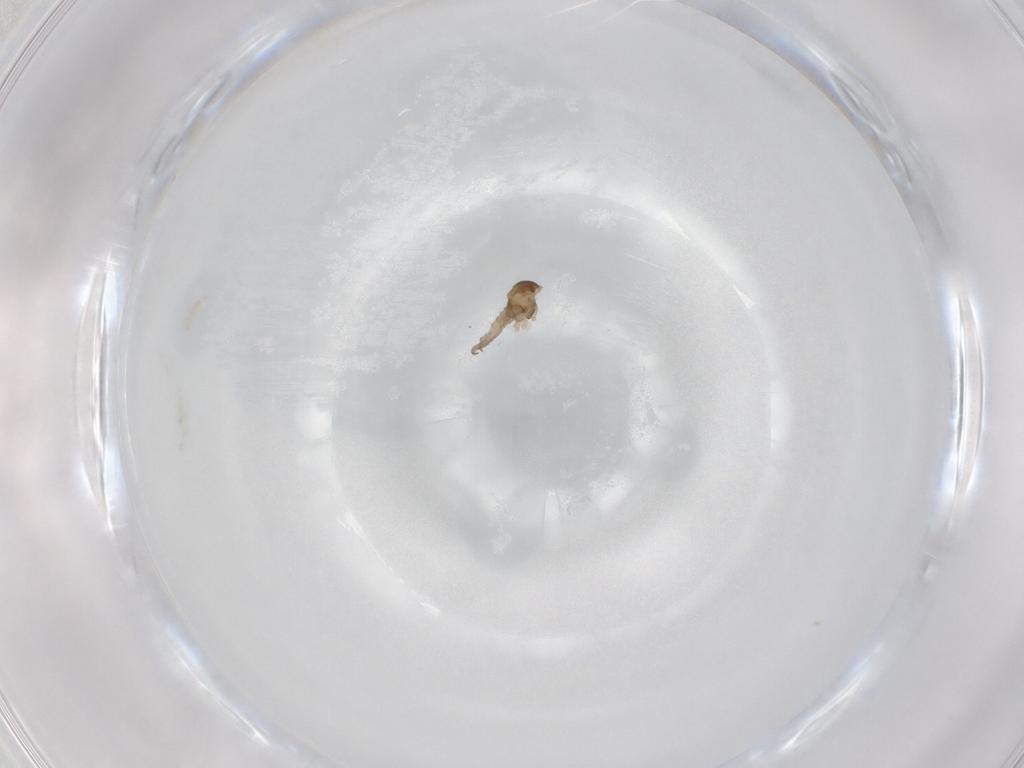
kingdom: Animalia
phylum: Arthropoda
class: Insecta
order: Diptera
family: Cecidomyiidae
